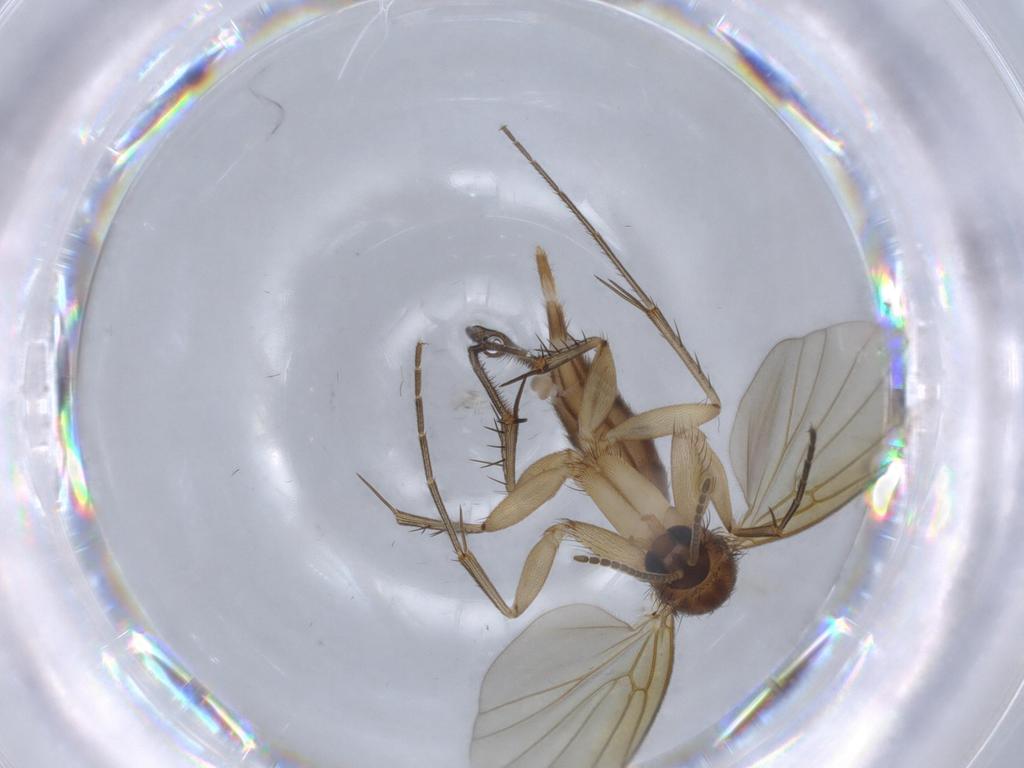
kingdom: Animalia
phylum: Arthropoda
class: Insecta
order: Diptera
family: Mycetophilidae
